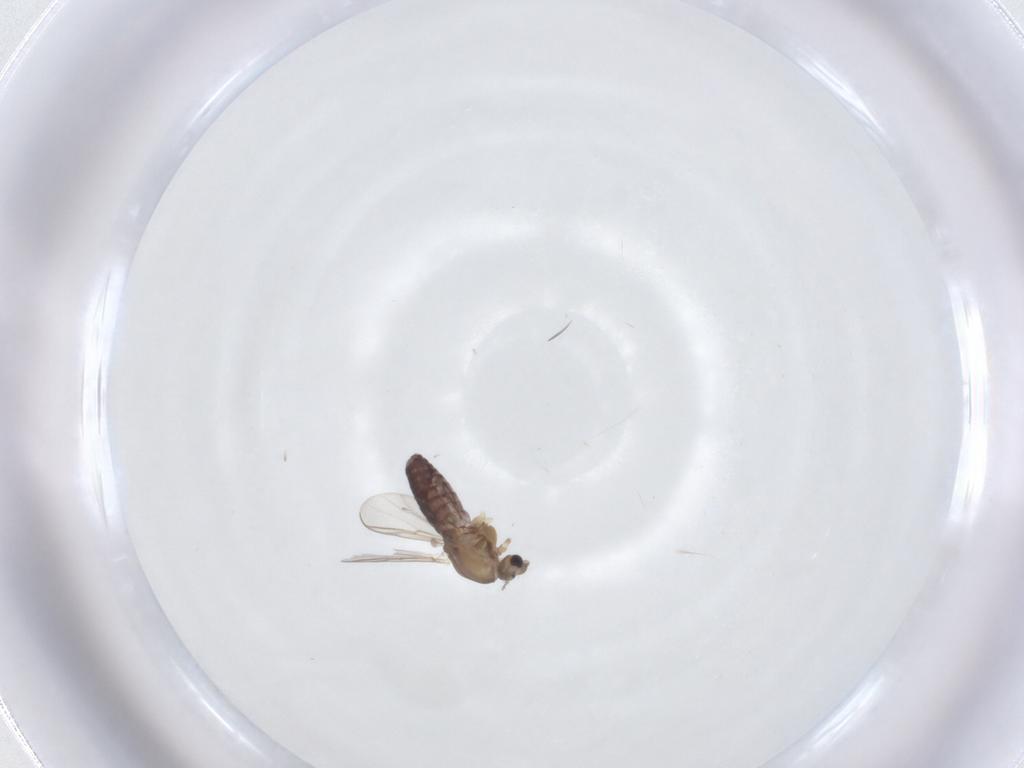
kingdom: Animalia
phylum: Arthropoda
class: Insecta
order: Diptera
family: Chironomidae
